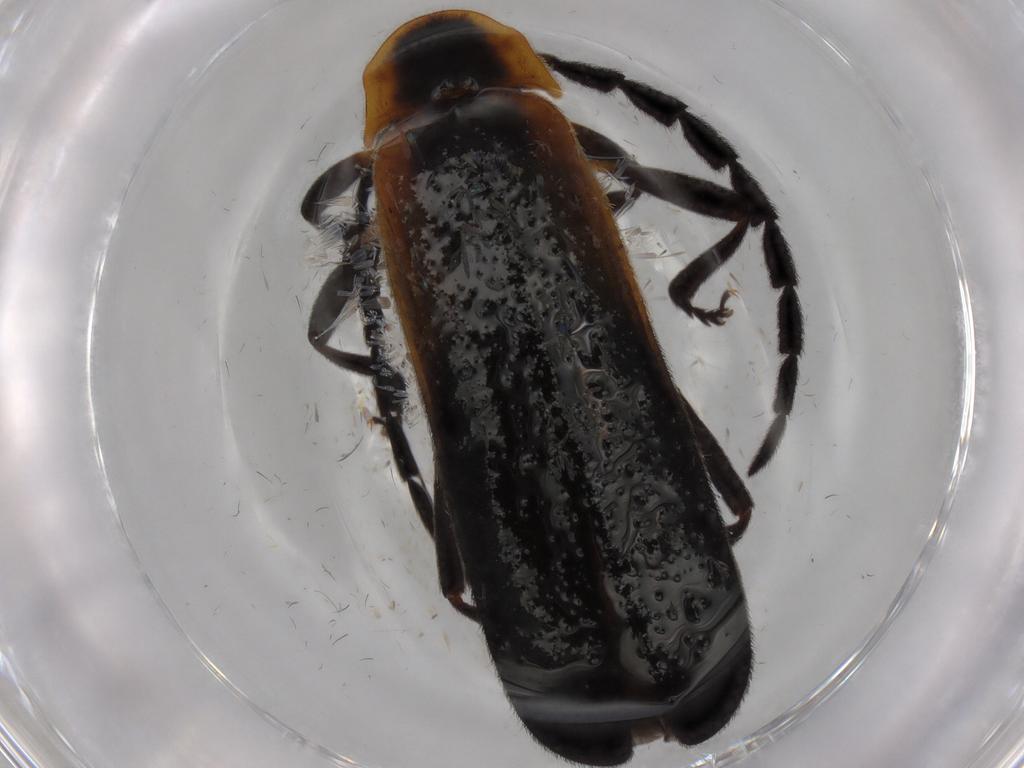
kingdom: Animalia
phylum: Arthropoda
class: Insecta
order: Coleoptera
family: Lycidae
